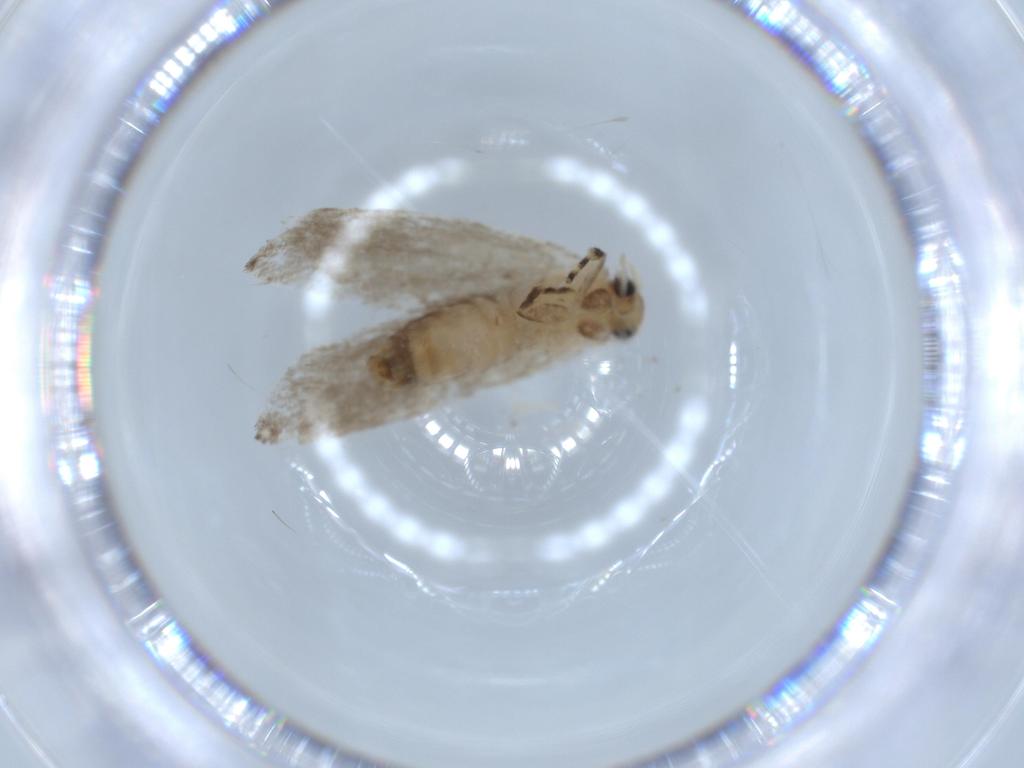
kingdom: Animalia
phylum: Arthropoda
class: Insecta
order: Lepidoptera
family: Tineidae
